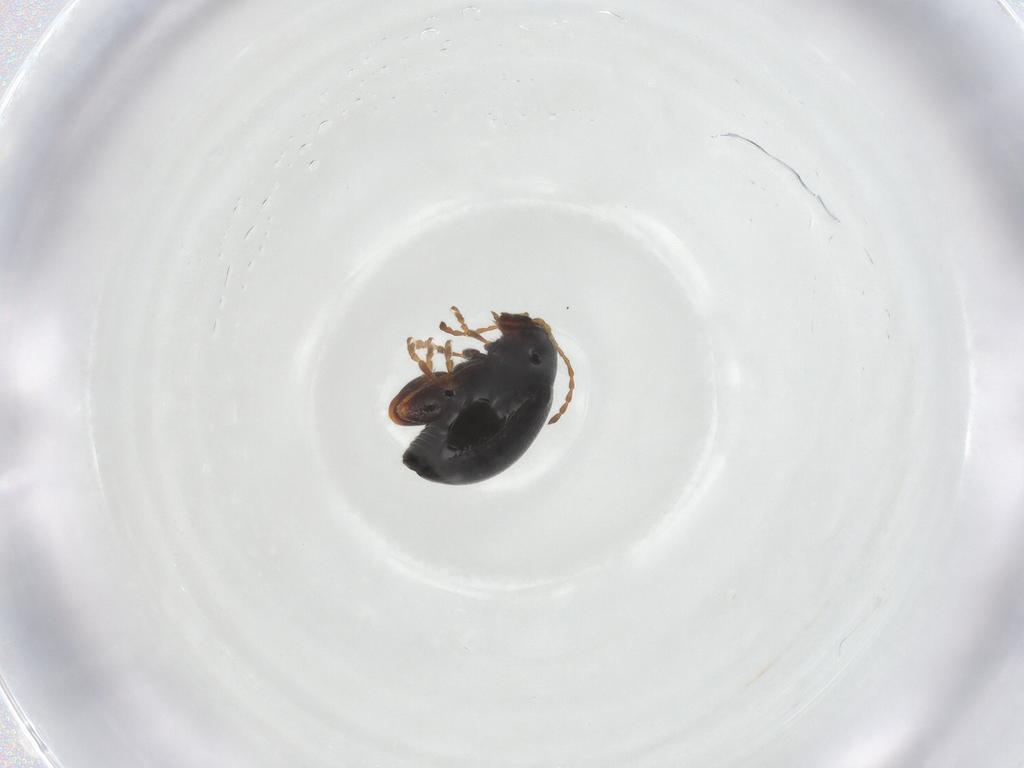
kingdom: Animalia
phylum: Arthropoda
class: Insecta
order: Coleoptera
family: Chrysomelidae
